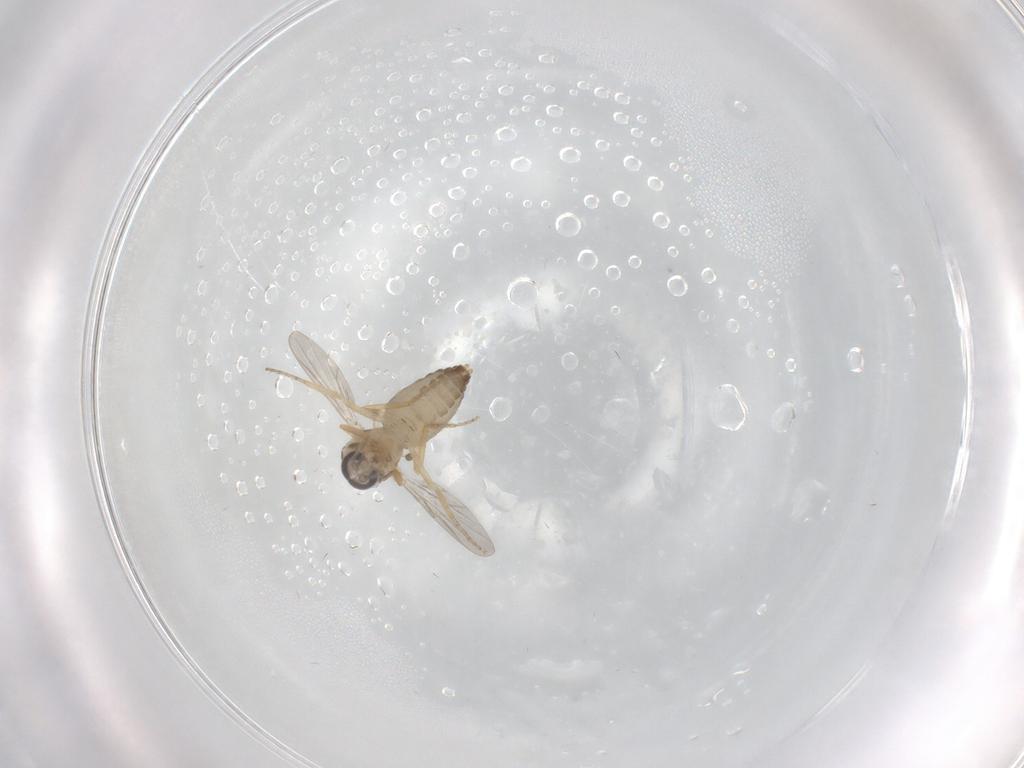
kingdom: Animalia
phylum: Arthropoda
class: Insecta
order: Diptera
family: Ceratopogonidae
